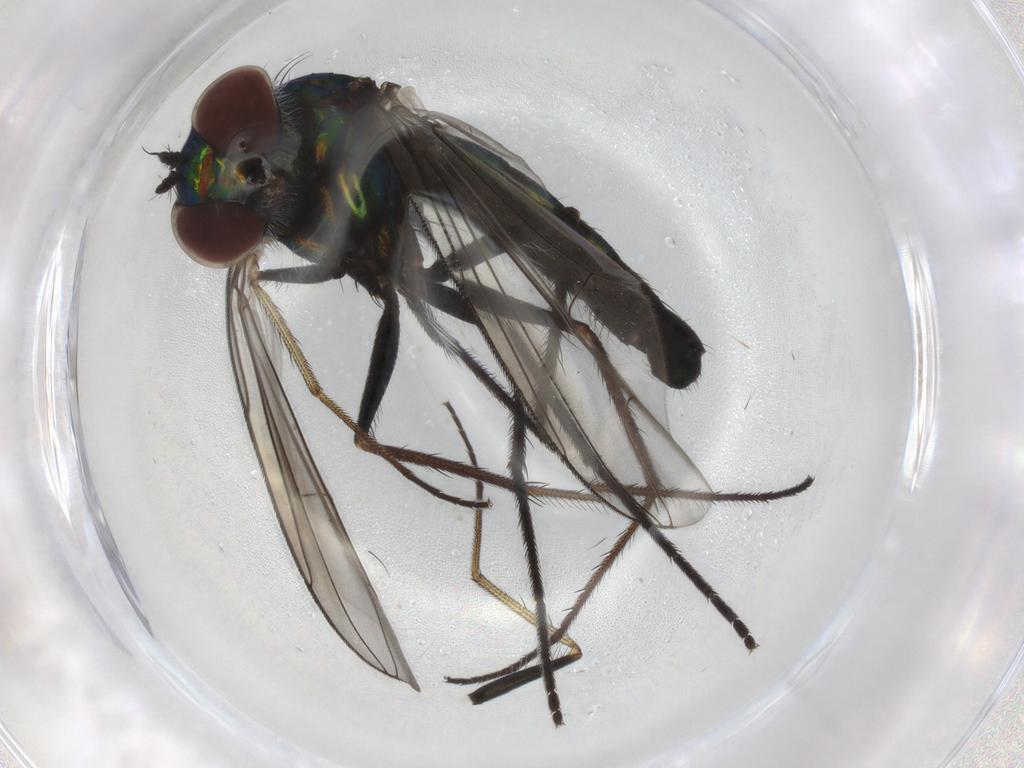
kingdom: Animalia
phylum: Arthropoda
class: Insecta
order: Diptera
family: Dolichopodidae
